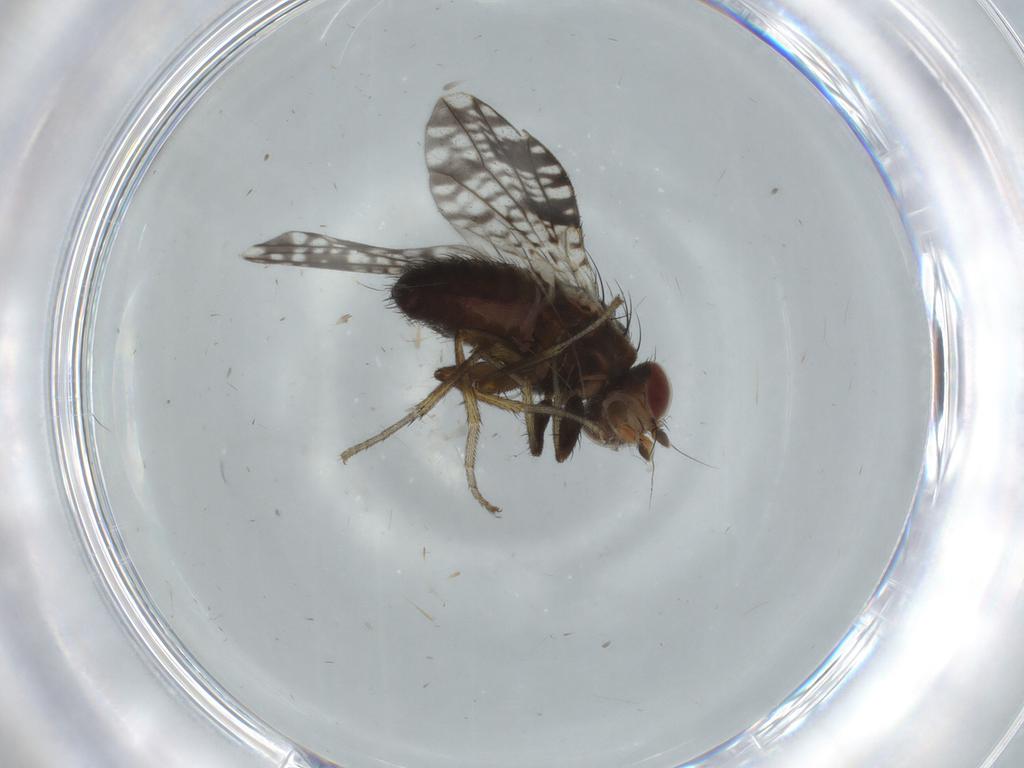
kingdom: Animalia
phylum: Arthropoda
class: Insecta
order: Diptera
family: Tephritidae
